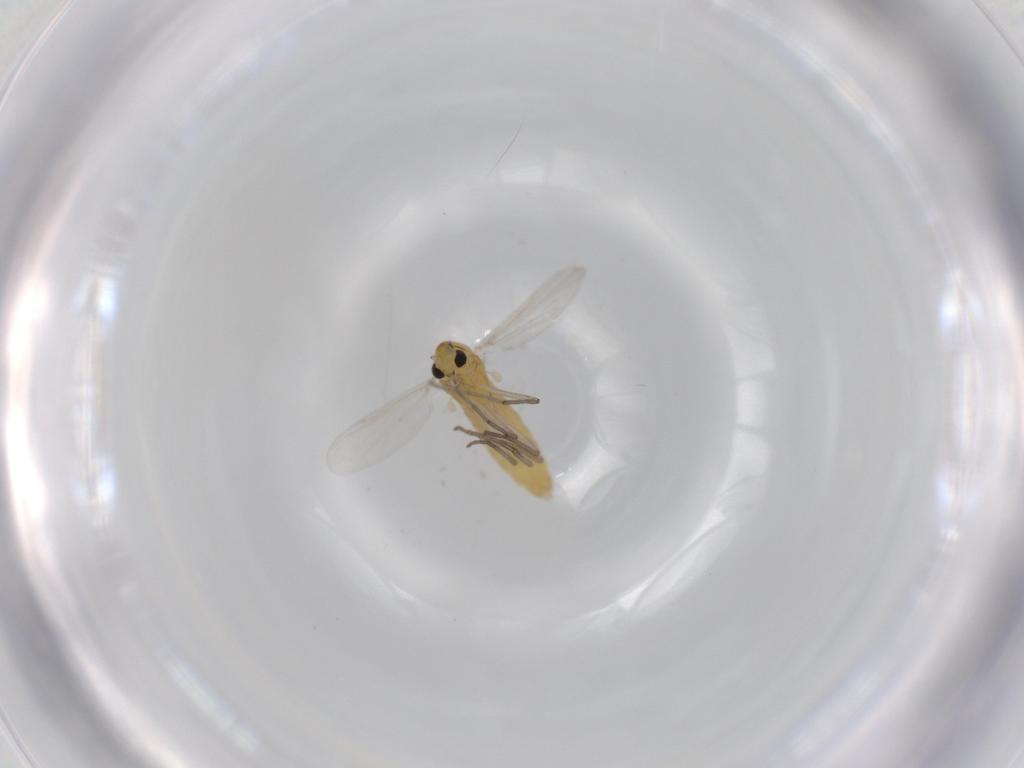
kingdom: Animalia
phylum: Arthropoda
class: Insecta
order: Diptera
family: Chironomidae
